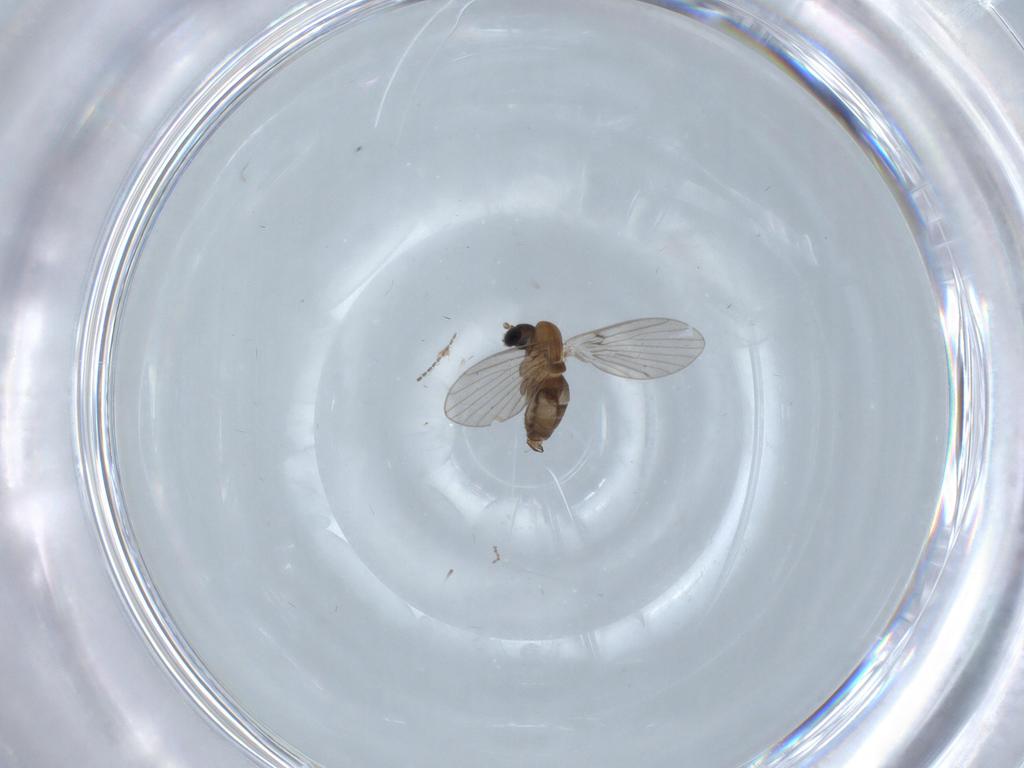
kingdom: Animalia
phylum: Arthropoda
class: Insecta
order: Diptera
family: Cecidomyiidae
